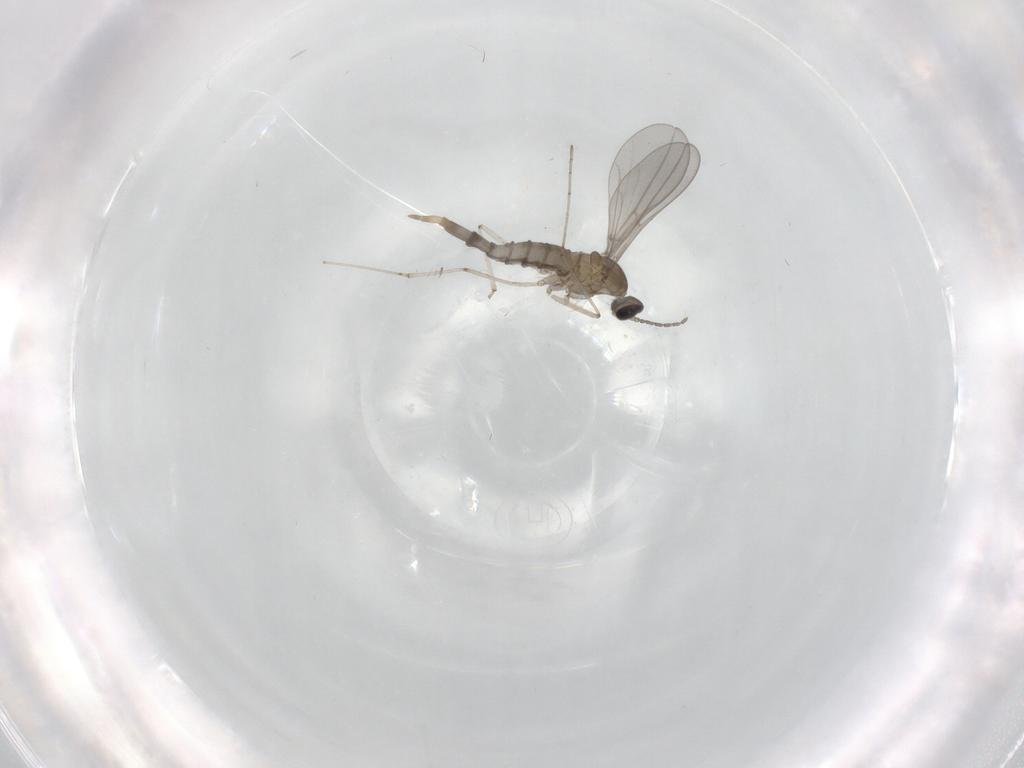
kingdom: Animalia
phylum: Arthropoda
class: Insecta
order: Diptera
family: Cecidomyiidae
